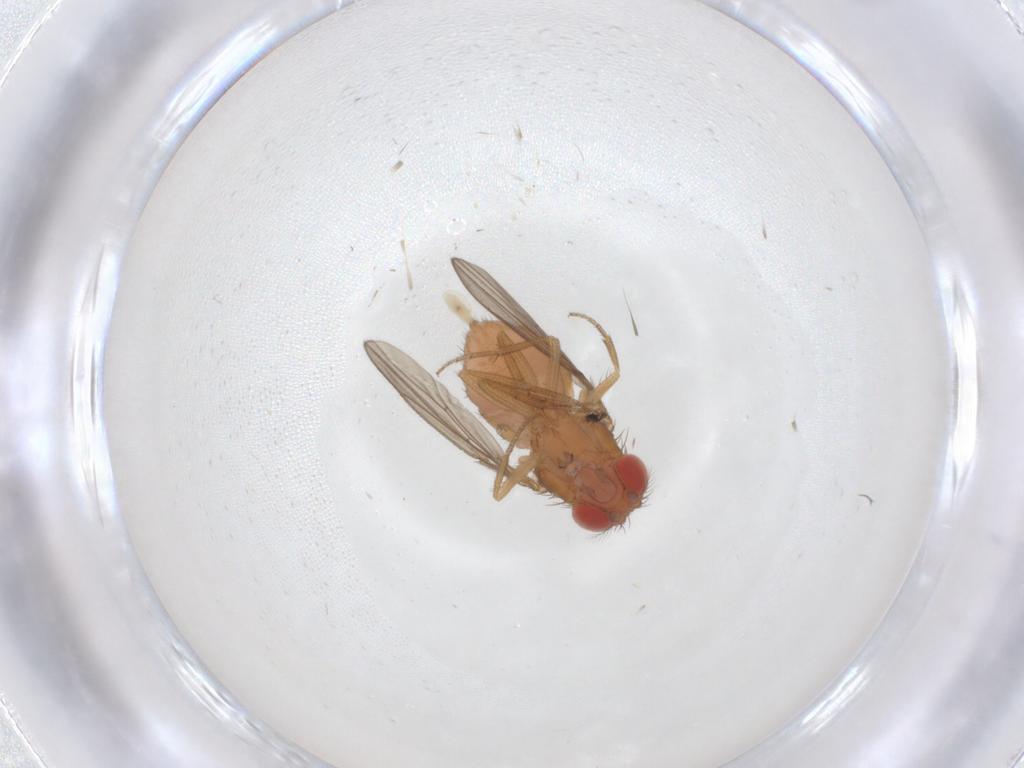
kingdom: Animalia
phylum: Arthropoda
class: Insecta
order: Diptera
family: Drosophilidae
